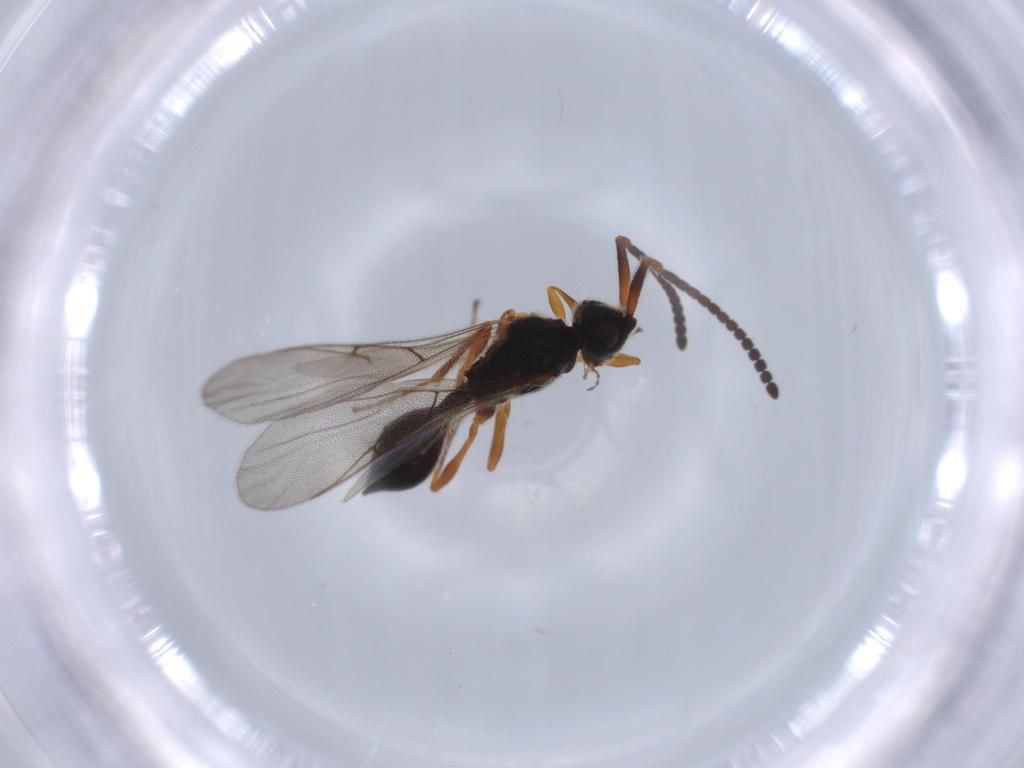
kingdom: Animalia
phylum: Arthropoda
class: Insecta
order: Hymenoptera
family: Diapriidae
